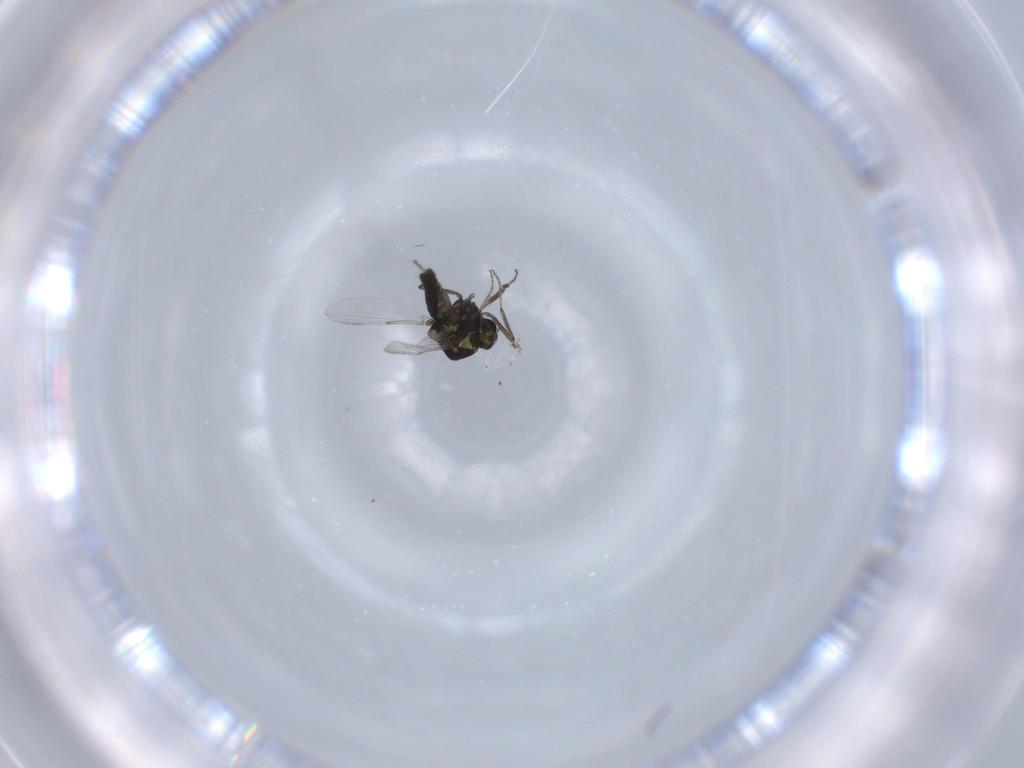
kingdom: Animalia
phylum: Arthropoda
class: Insecta
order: Diptera
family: Ceratopogonidae
